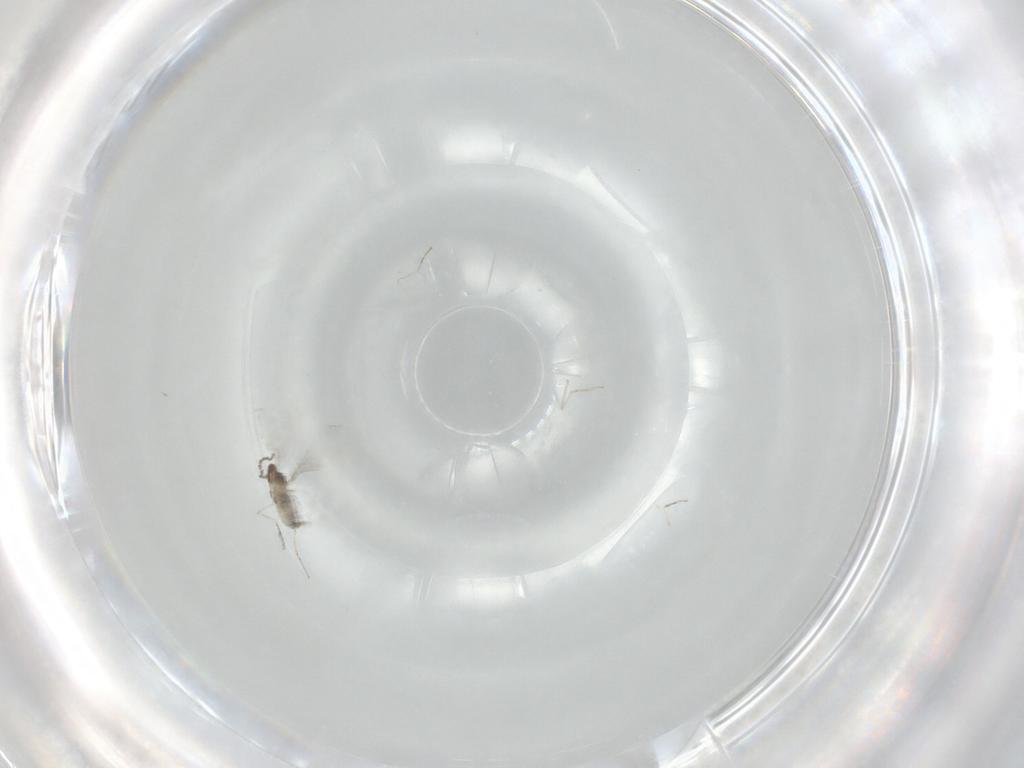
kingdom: Animalia
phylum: Arthropoda
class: Insecta
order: Diptera
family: Cecidomyiidae
